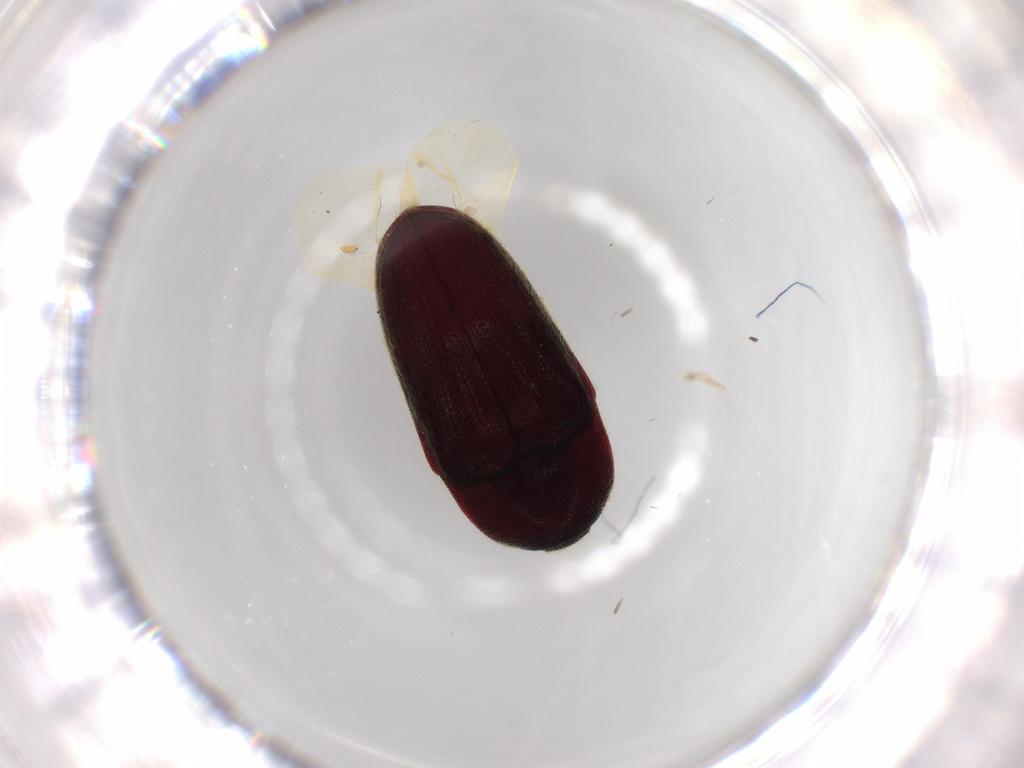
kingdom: Animalia
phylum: Arthropoda
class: Insecta
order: Coleoptera
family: Throscidae
